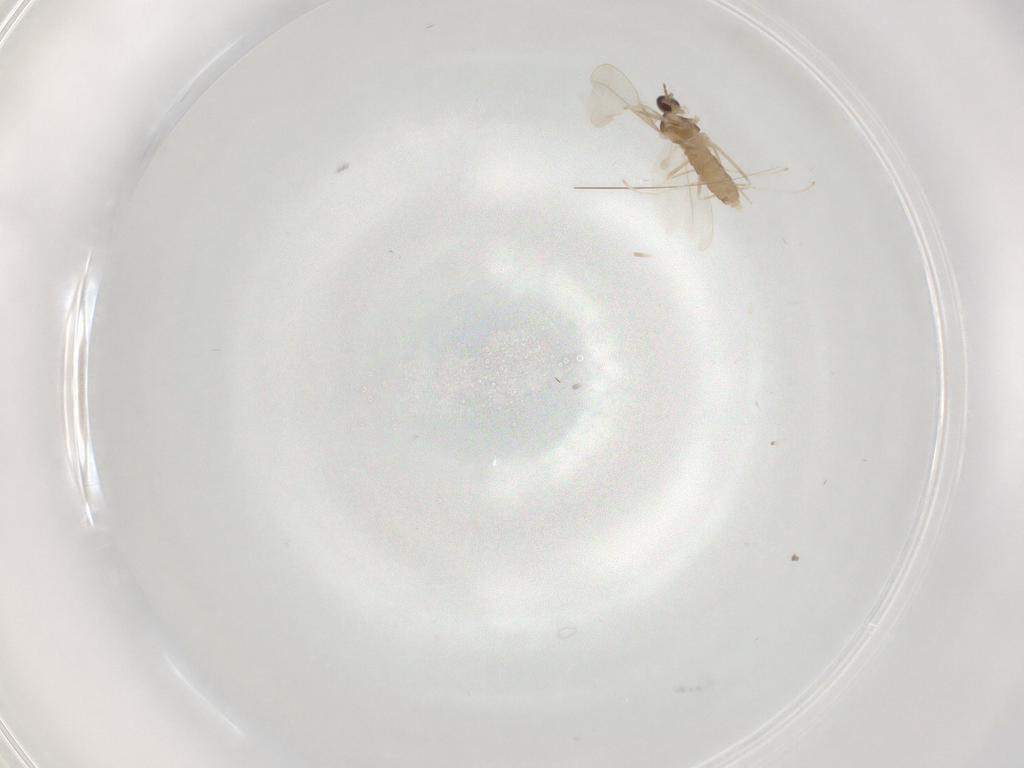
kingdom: Animalia
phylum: Arthropoda
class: Insecta
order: Diptera
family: Cecidomyiidae
